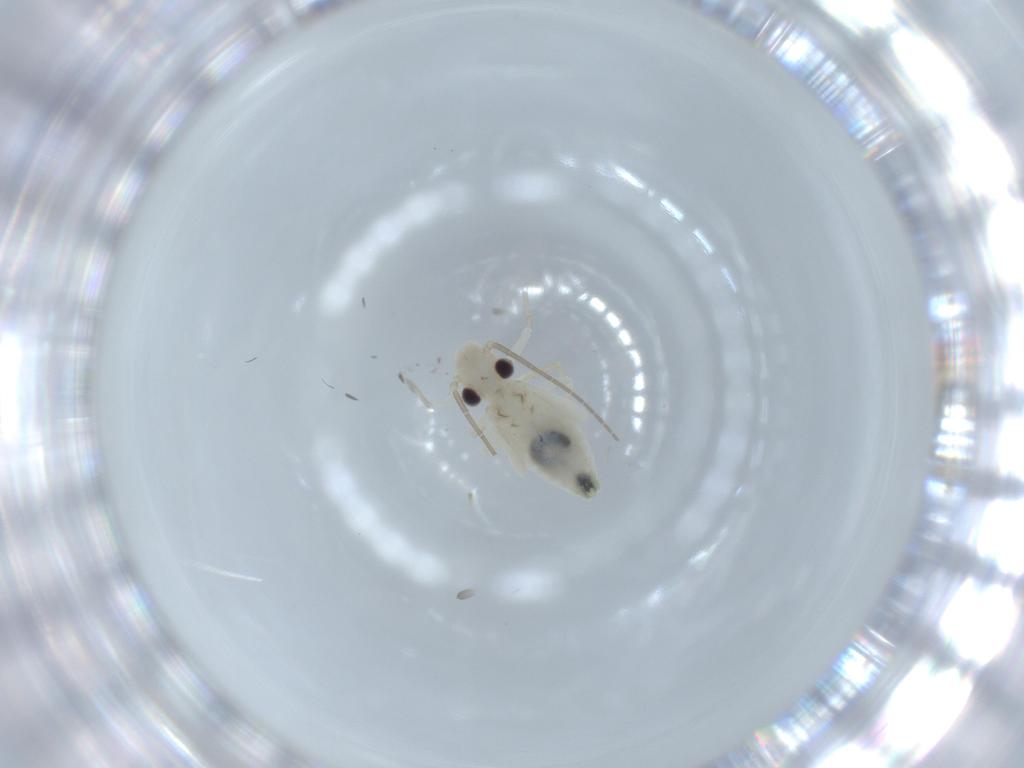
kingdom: Animalia
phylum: Arthropoda
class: Insecta
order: Psocodea
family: Caeciliusidae
